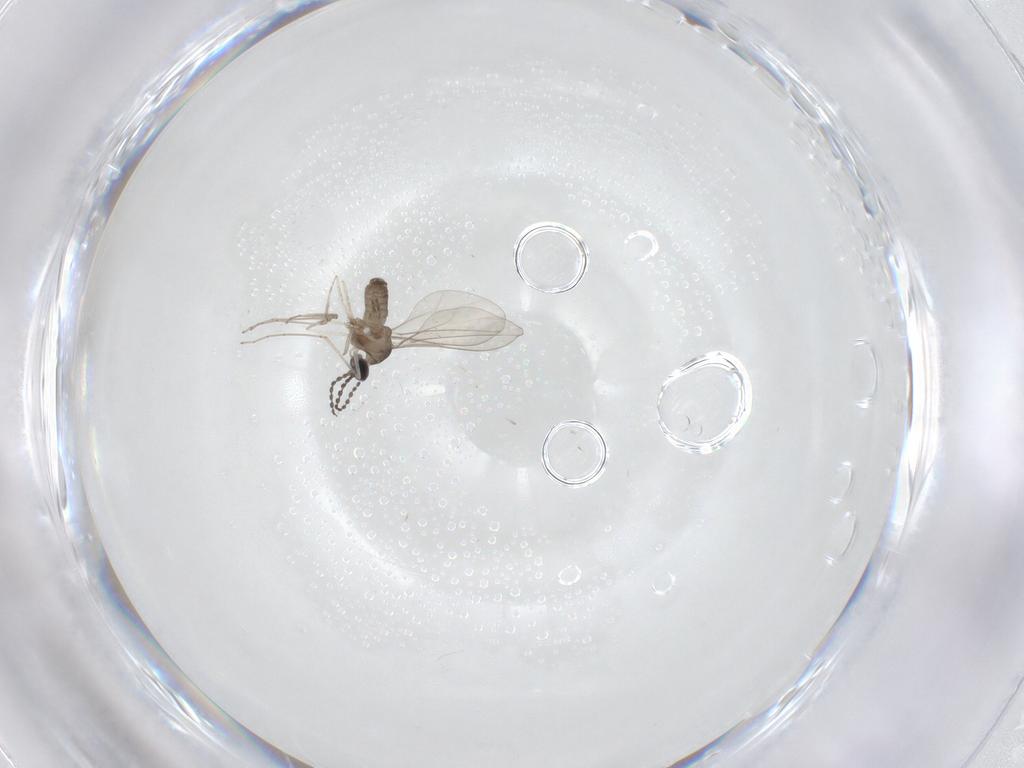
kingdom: Animalia
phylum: Arthropoda
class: Insecta
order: Diptera
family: Cecidomyiidae
